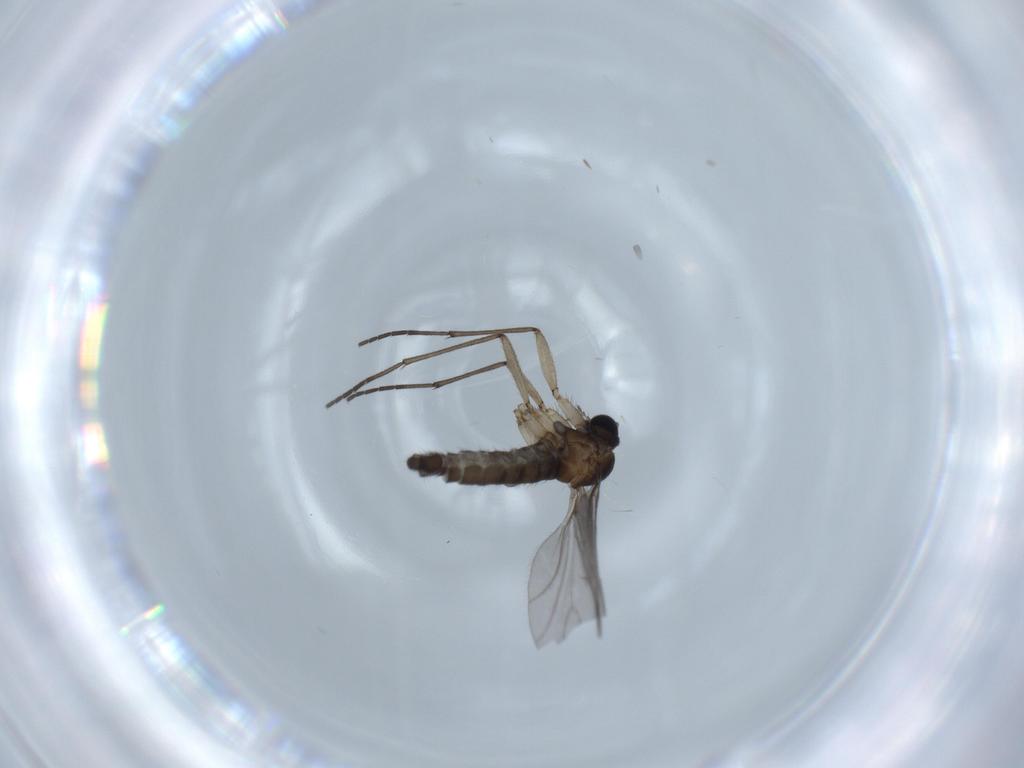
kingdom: Animalia
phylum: Arthropoda
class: Insecta
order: Diptera
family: Sciaridae
